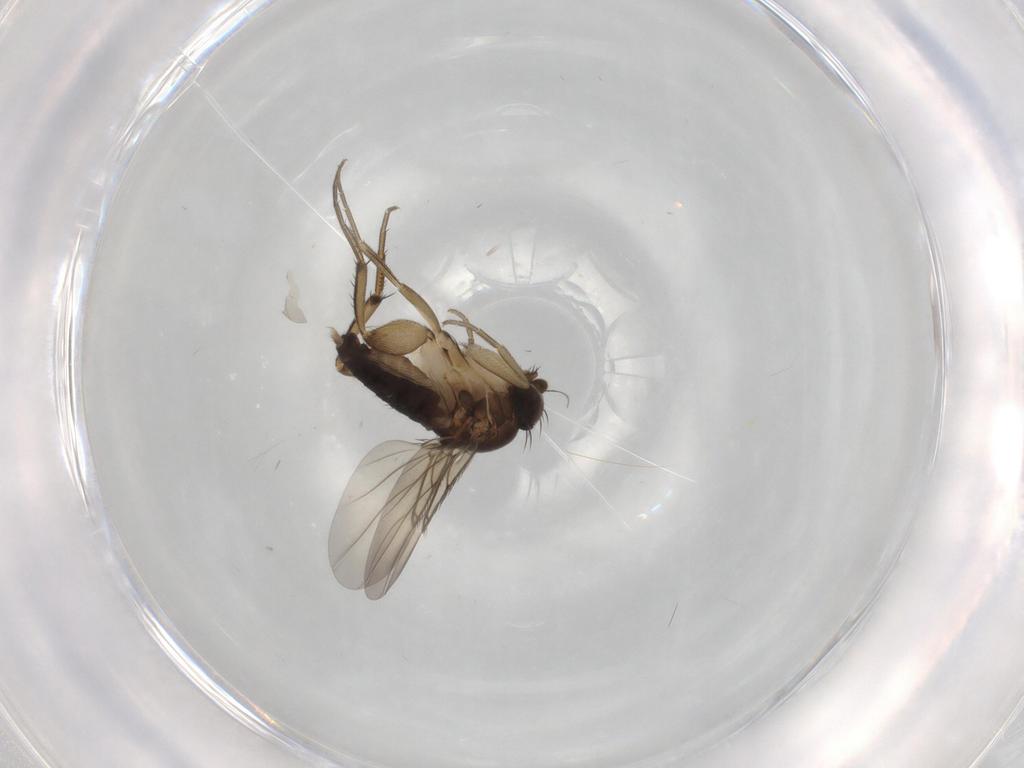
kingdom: Animalia
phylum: Arthropoda
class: Insecta
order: Diptera
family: Phoridae
